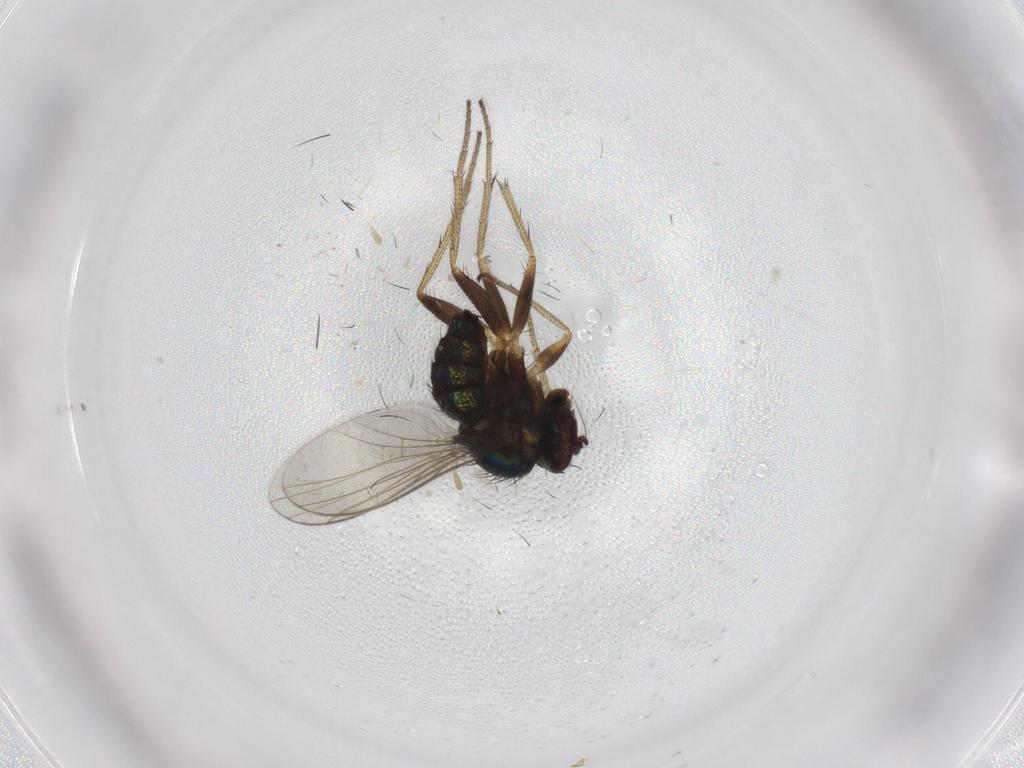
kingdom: Animalia
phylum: Arthropoda
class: Insecta
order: Diptera
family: Dolichopodidae
